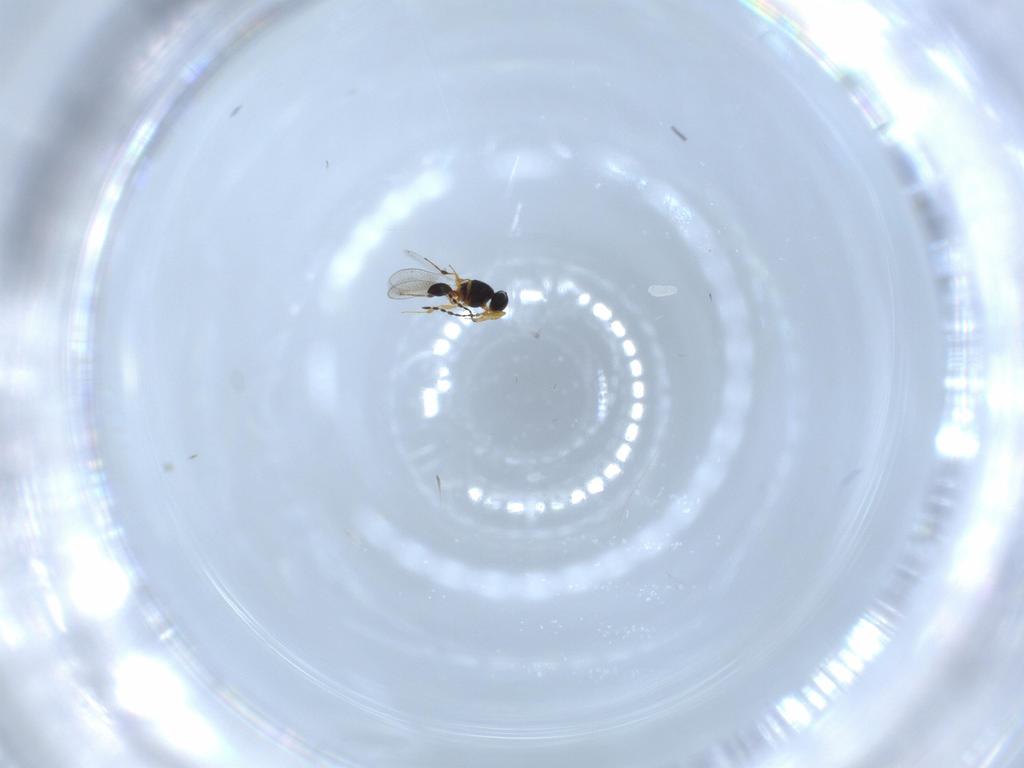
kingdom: Animalia
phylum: Arthropoda
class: Insecta
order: Hymenoptera
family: Platygastridae
